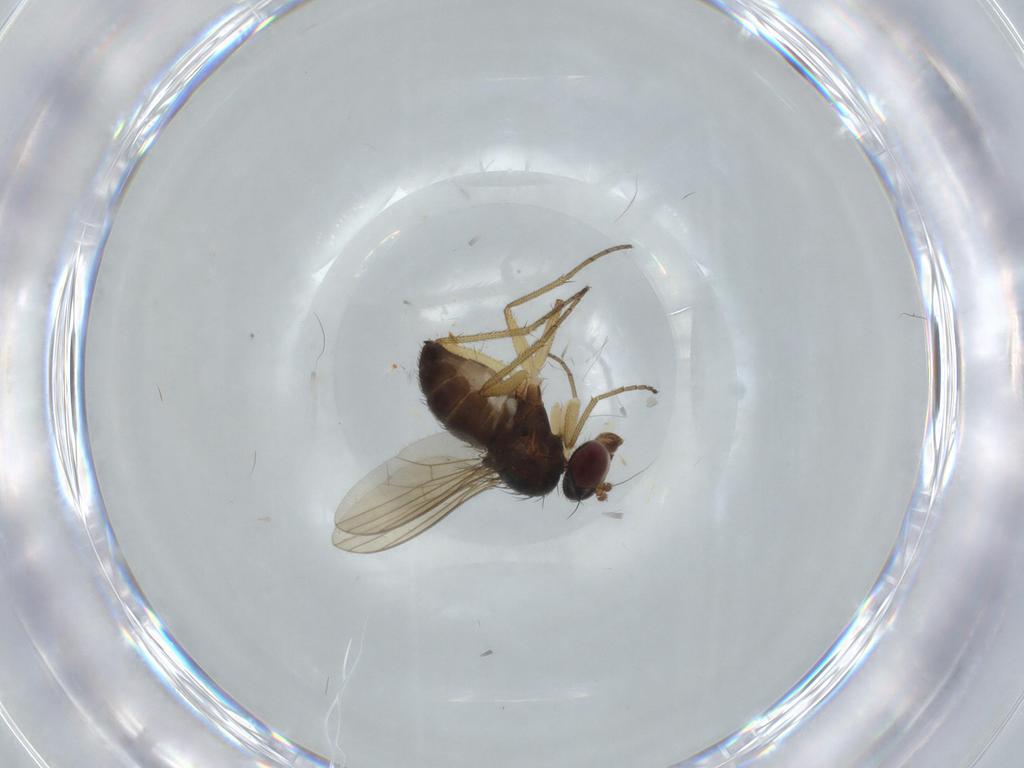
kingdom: Animalia
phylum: Arthropoda
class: Insecta
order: Diptera
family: Dolichopodidae
